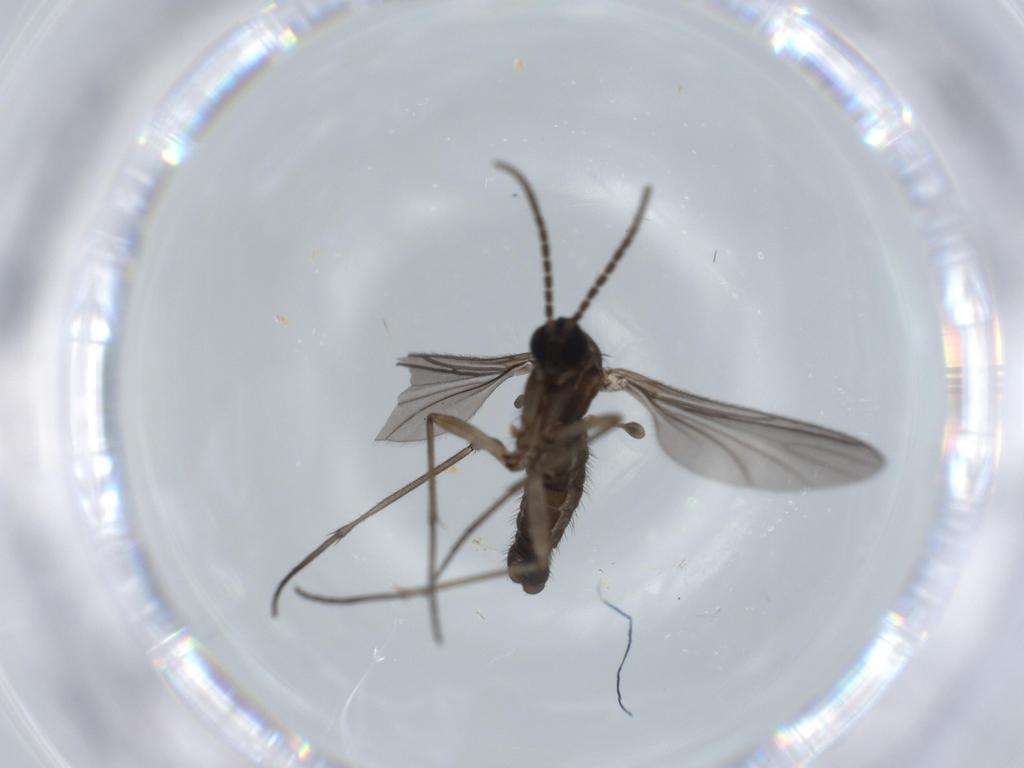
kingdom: Animalia
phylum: Arthropoda
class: Insecta
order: Diptera
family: Sciaridae
